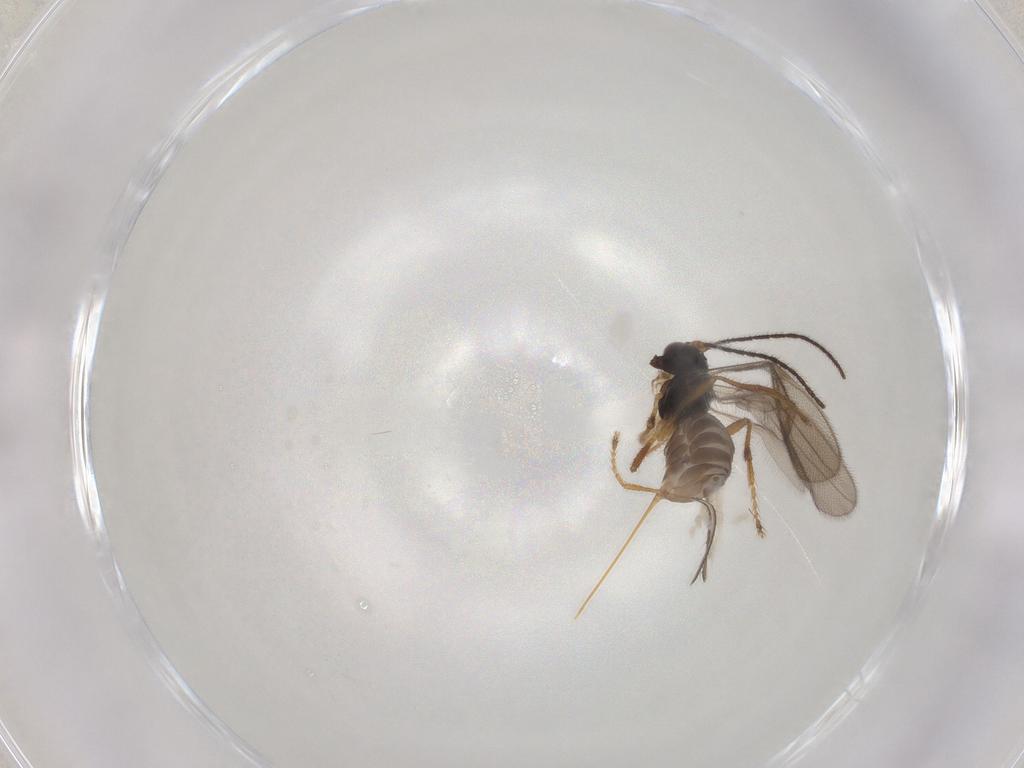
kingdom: Animalia
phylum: Arthropoda
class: Insecta
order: Hymenoptera
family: Braconidae
